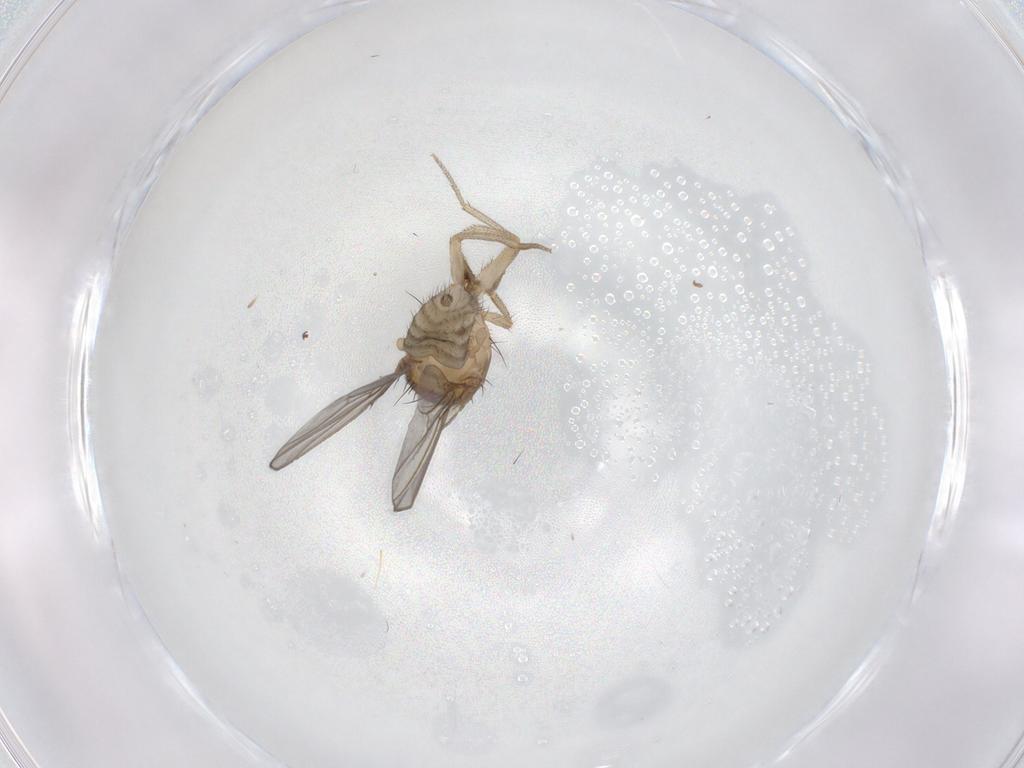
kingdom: Animalia
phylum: Arthropoda
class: Insecta
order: Diptera
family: Drosophilidae
